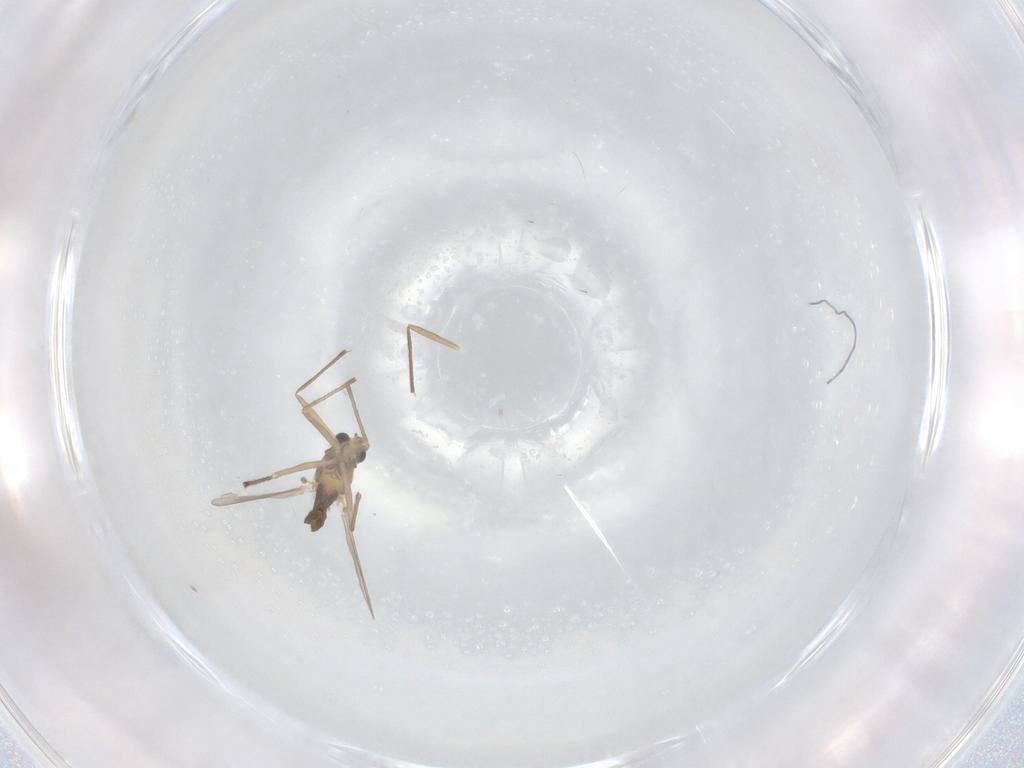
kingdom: Animalia
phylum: Arthropoda
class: Insecta
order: Diptera
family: Chironomidae
